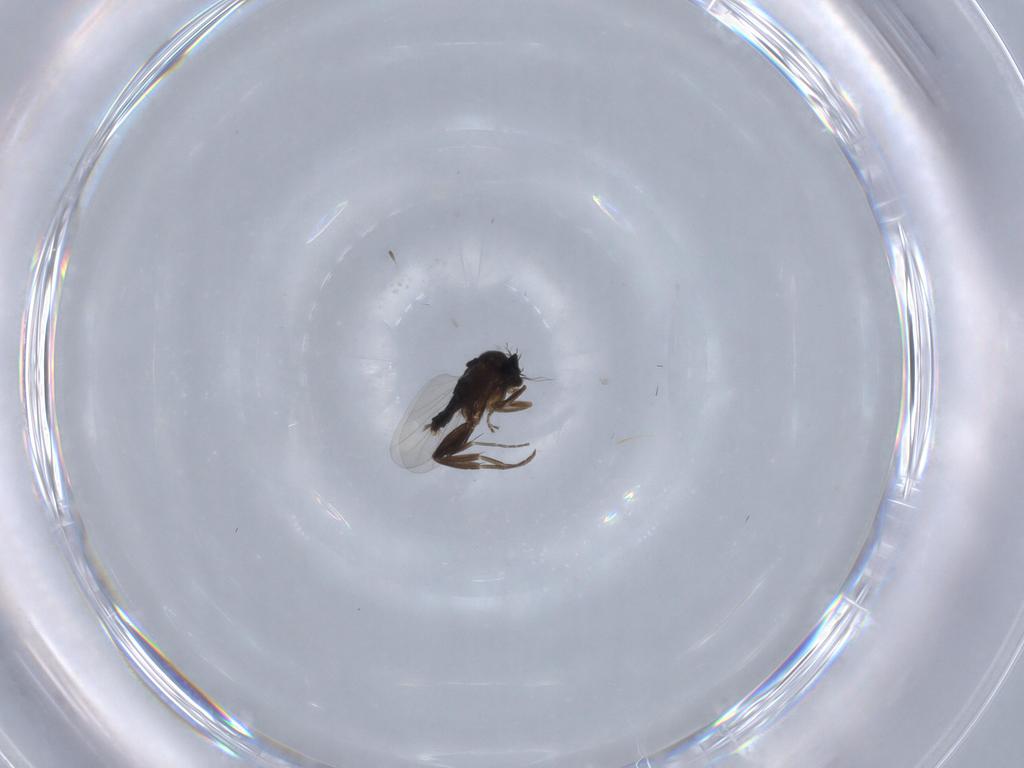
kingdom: Animalia
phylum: Arthropoda
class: Insecta
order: Diptera
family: Phoridae
